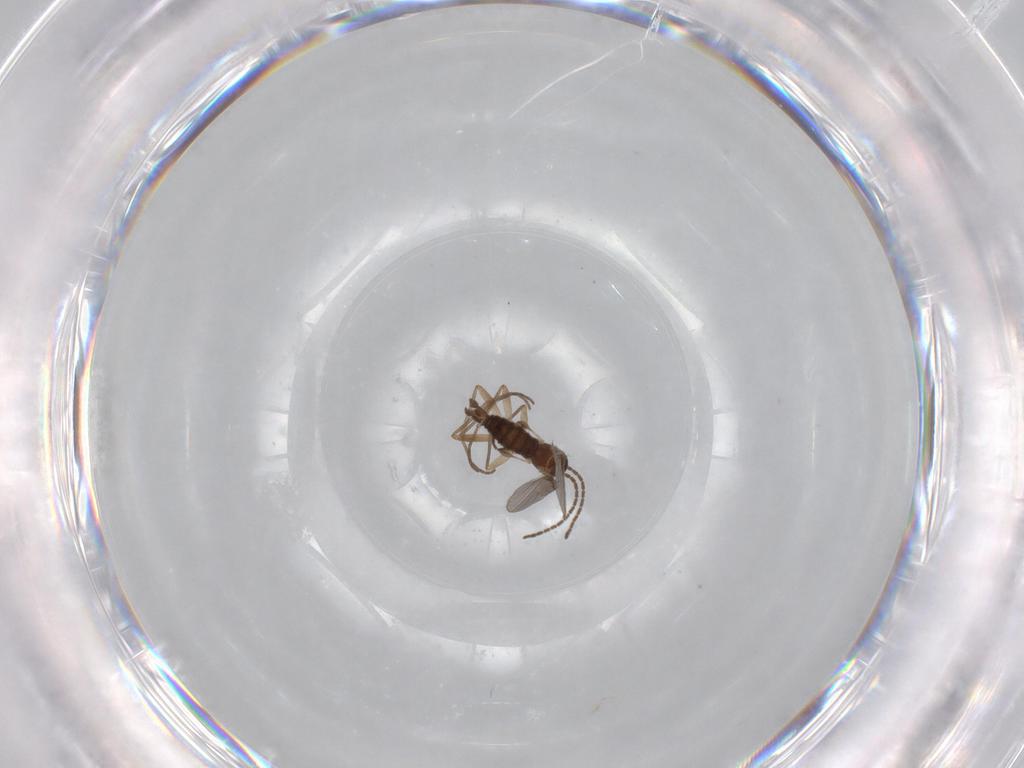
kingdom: Animalia
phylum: Arthropoda
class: Insecta
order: Diptera
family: Sciaridae
